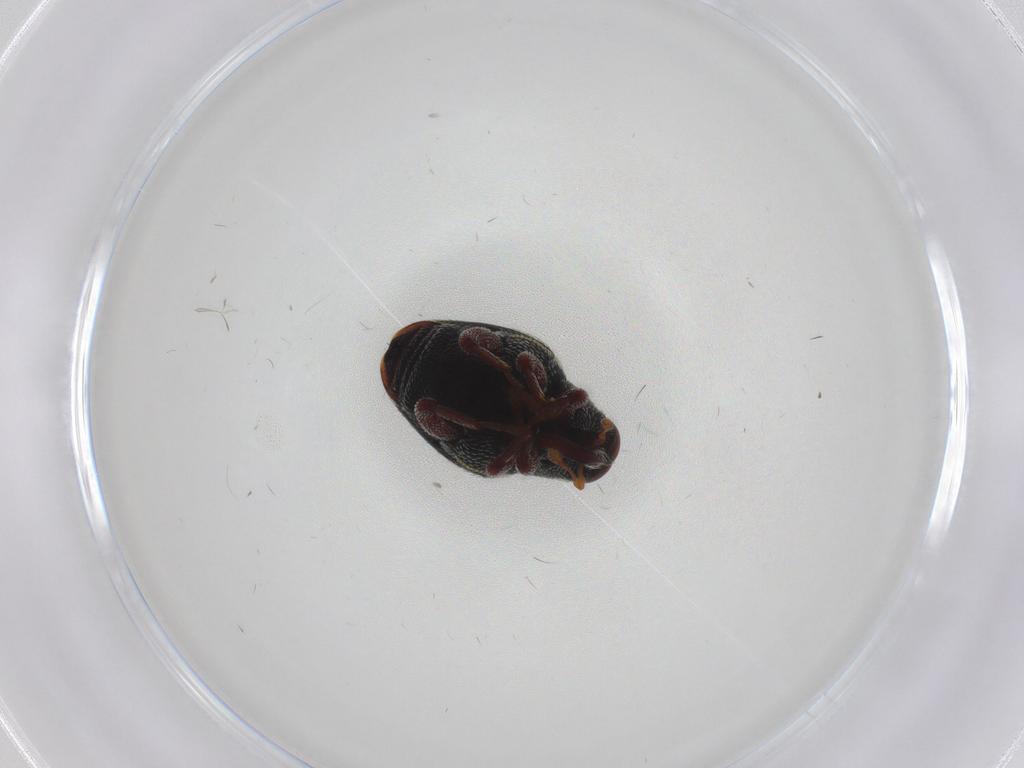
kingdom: Animalia
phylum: Arthropoda
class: Insecta
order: Coleoptera
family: Curculionidae
